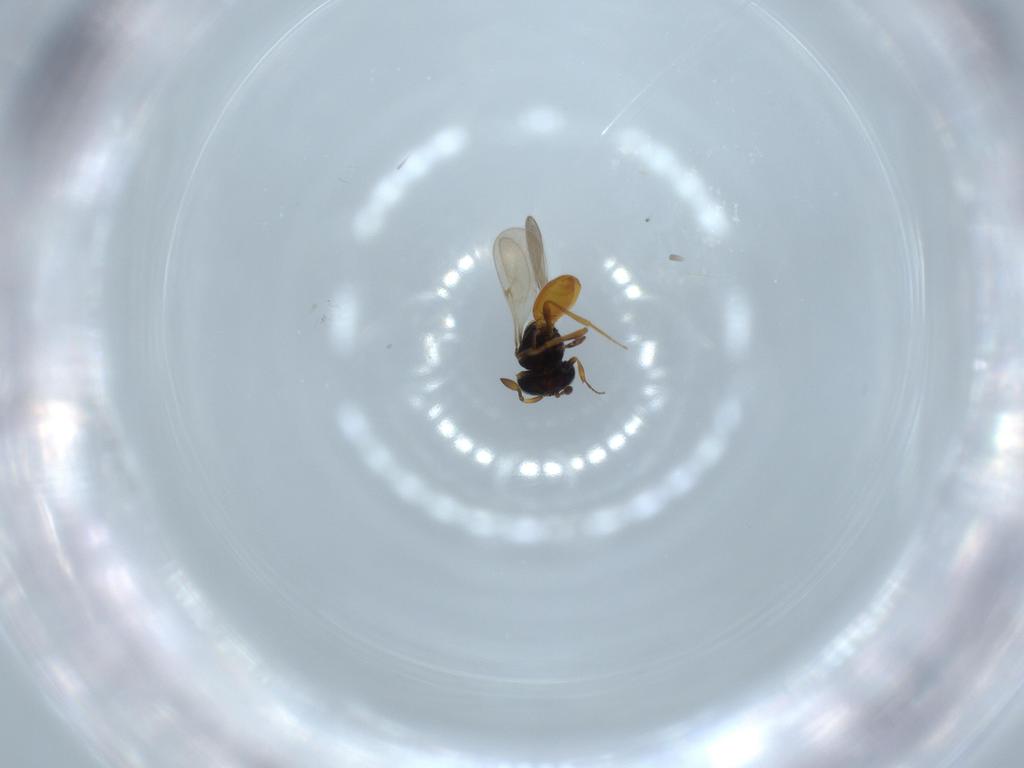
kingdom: Animalia
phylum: Arthropoda
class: Insecta
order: Hymenoptera
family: Scelionidae
